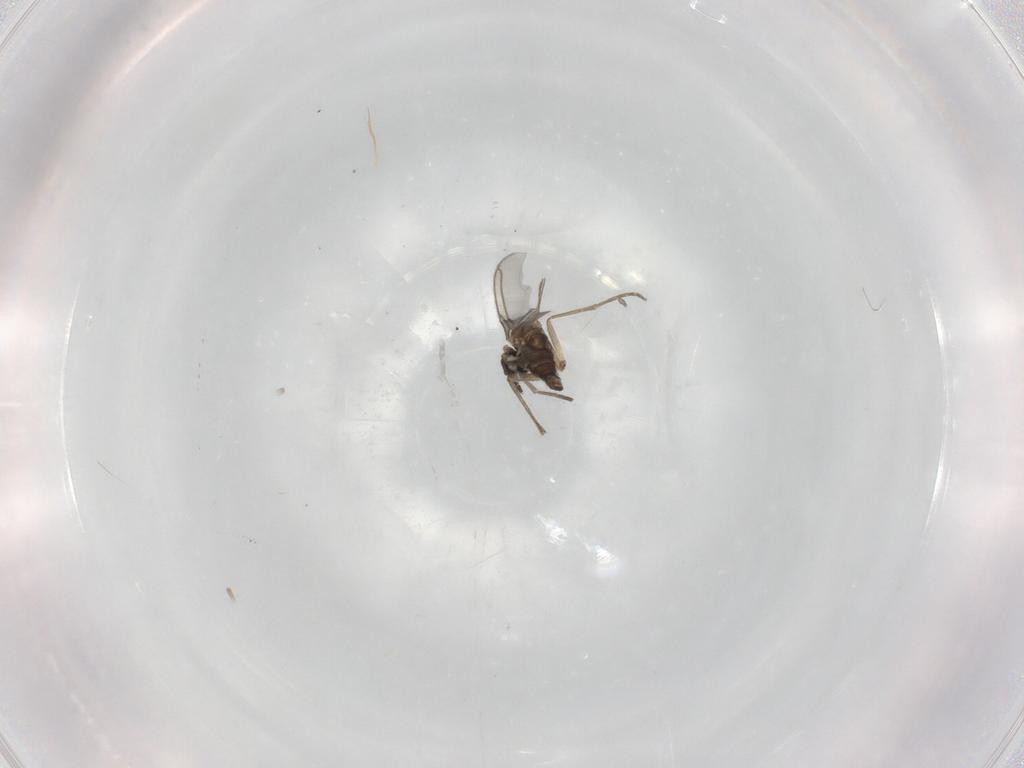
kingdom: Animalia
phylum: Arthropoda
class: Insecta
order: Diptera
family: Sciaridae
